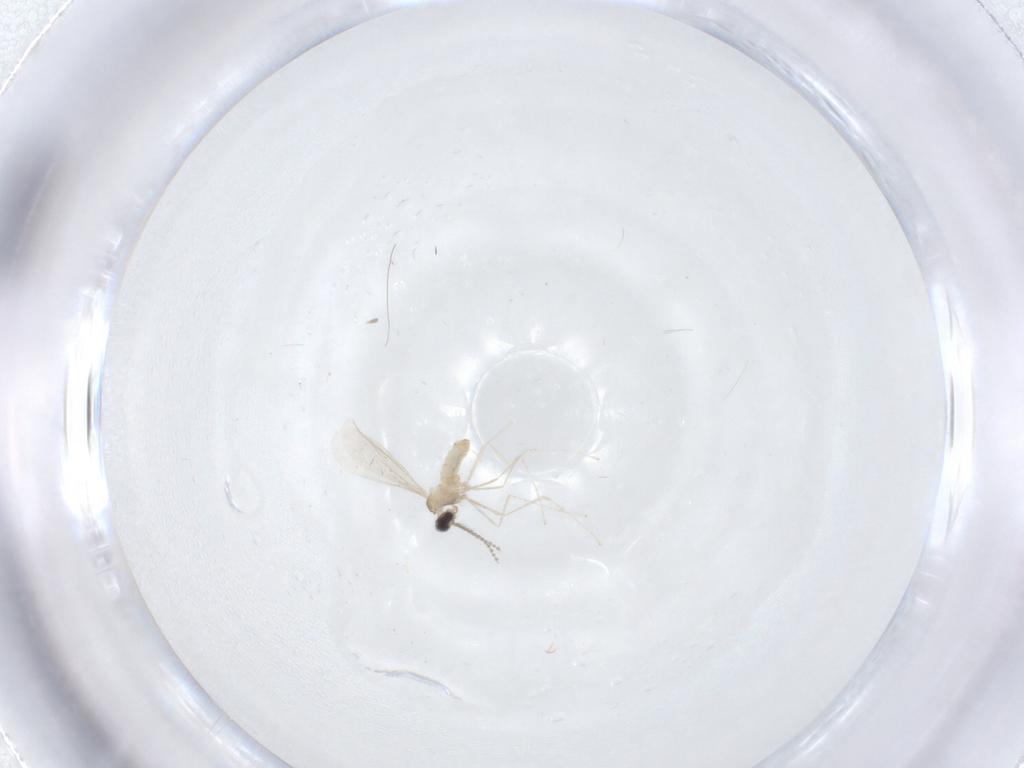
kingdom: Animalia
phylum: Arthropoda
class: Insecta
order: Diptera
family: Cecidomyiidae
